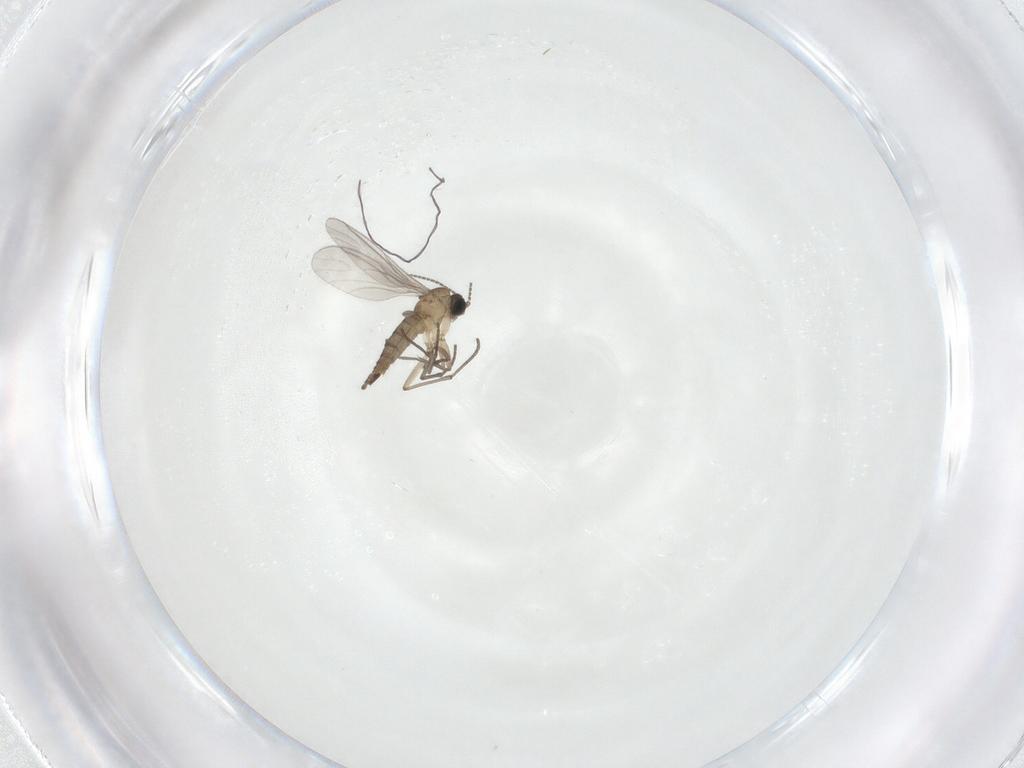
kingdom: Animalia
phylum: Arthropoda
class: Insecta
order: Diptera
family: Sciaridae
